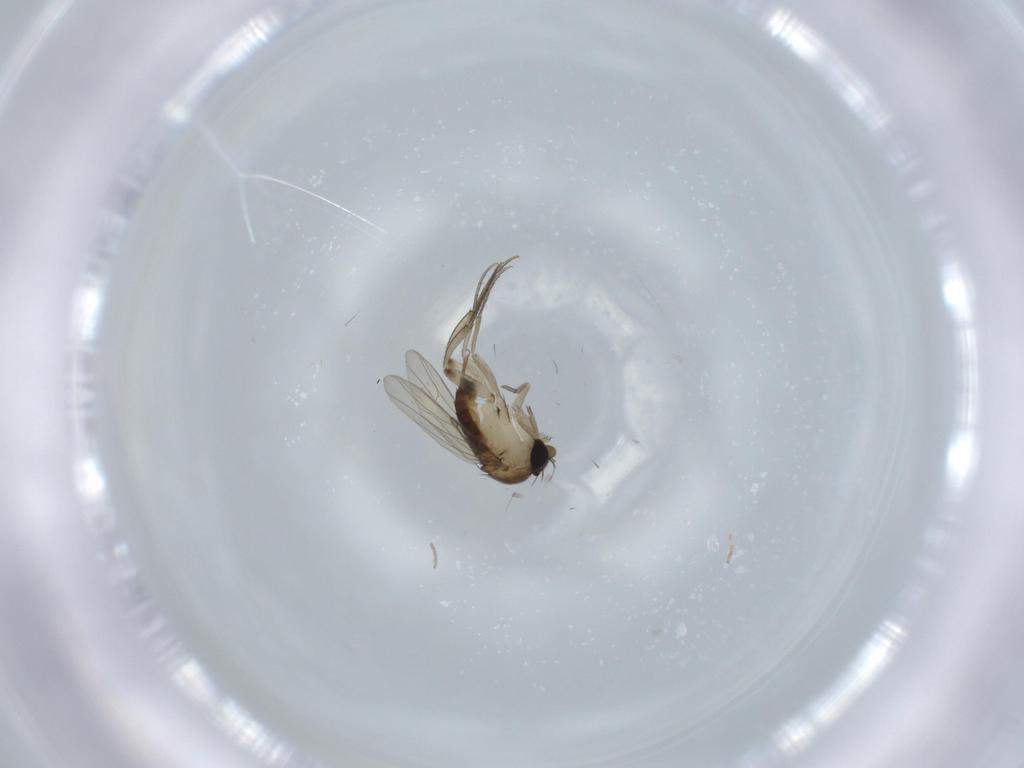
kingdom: Animalia
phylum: Arthropoda
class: Insecta
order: Diptera
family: Phoridae
